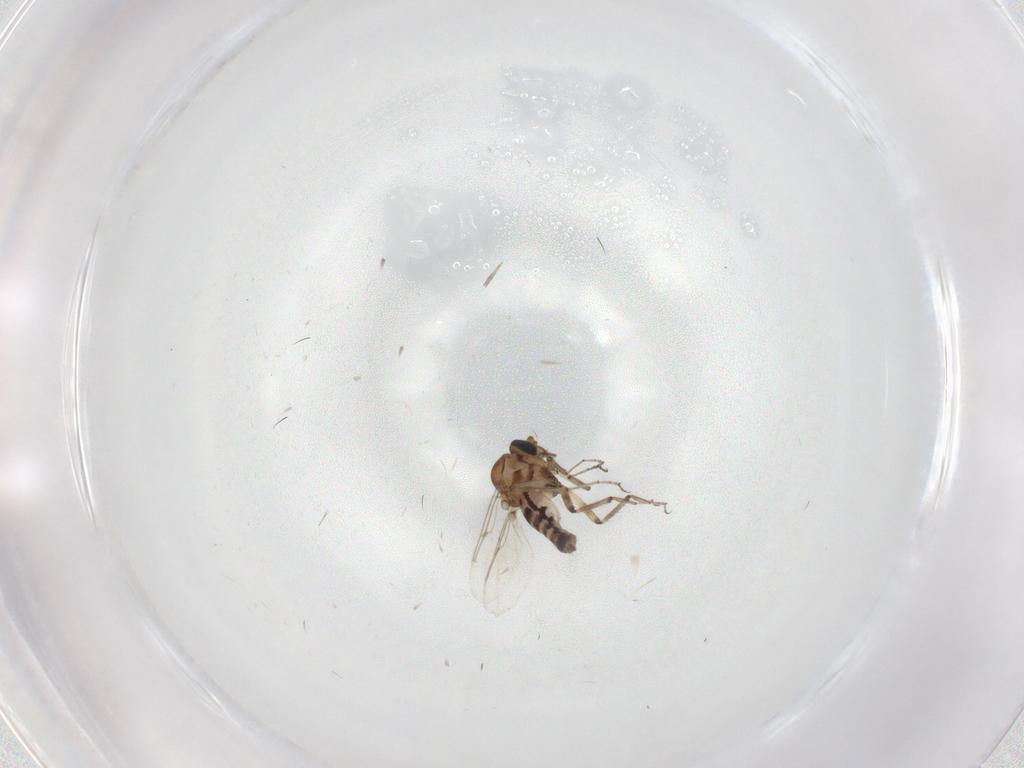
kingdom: Animalia
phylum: Arthropoda
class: Insecta
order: Diptera
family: Ceratopogonidae
